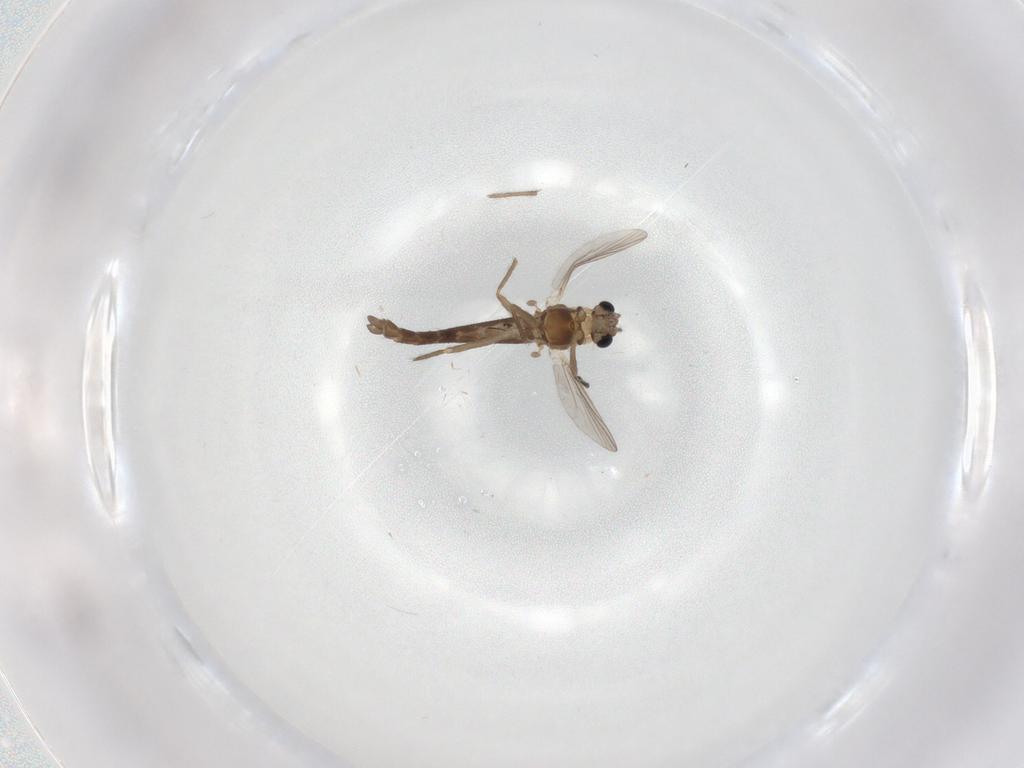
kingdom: Animalia
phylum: Arthropoda
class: Insecta
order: Diptera
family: Chironomidae
